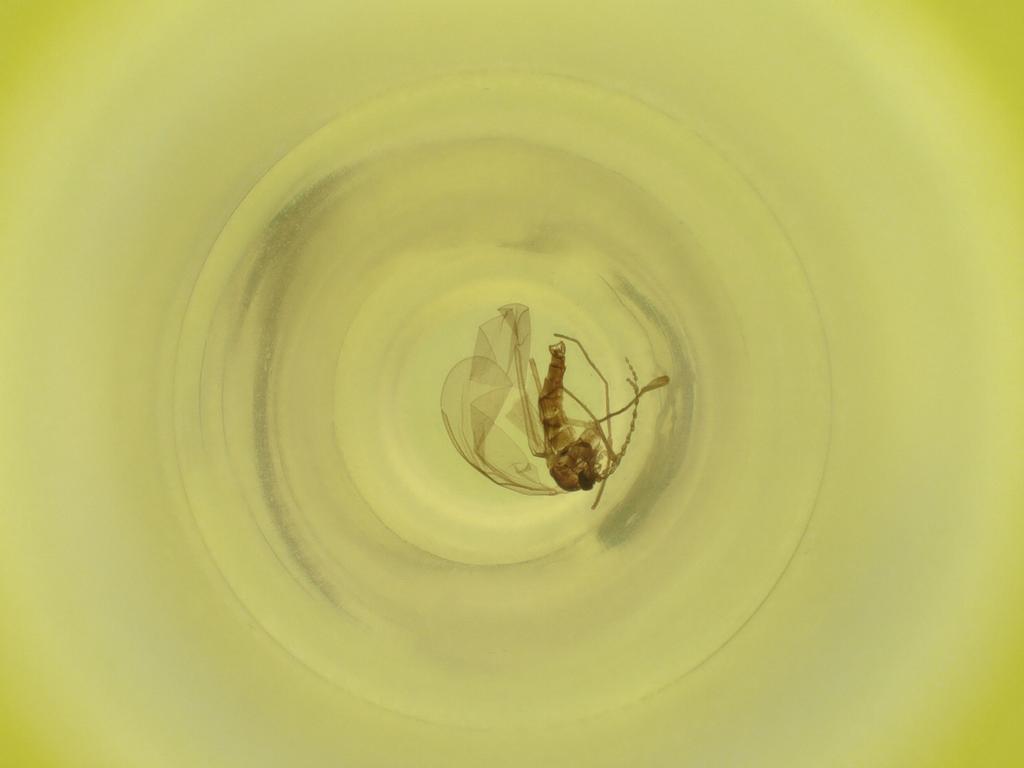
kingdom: Animalia
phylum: Arthropoda
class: Insecta
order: Diptera
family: Cecidomyiidae
